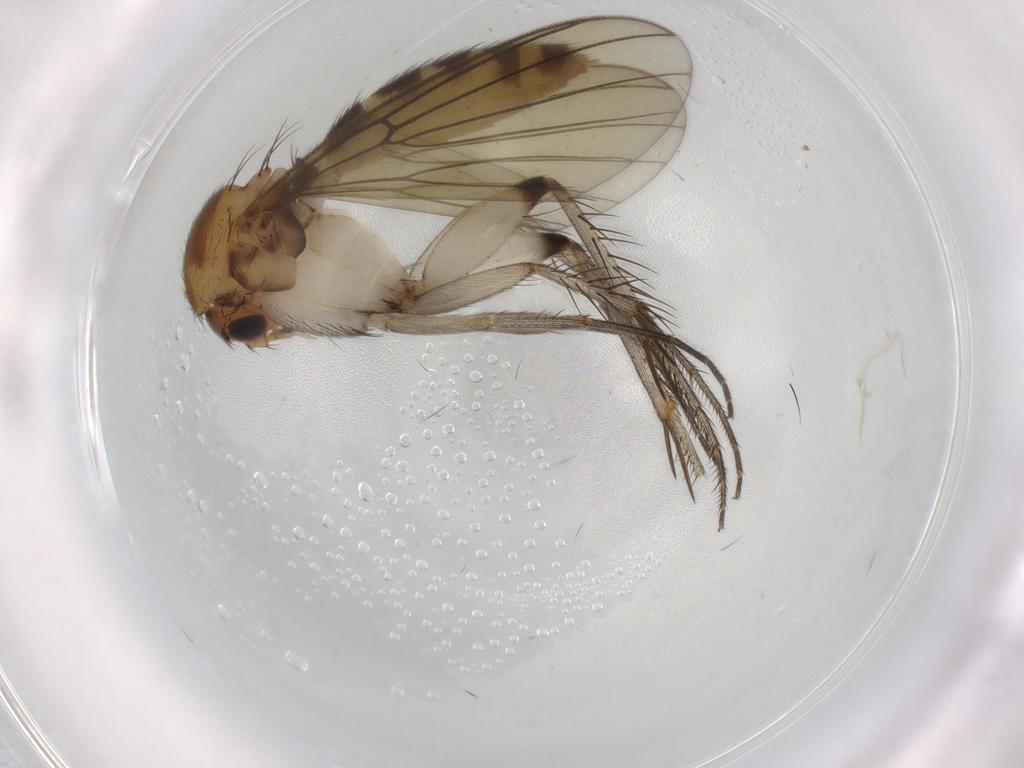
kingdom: Animalia
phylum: Arthropoda
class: Insecta
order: Diptera
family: Mycetophilidae
